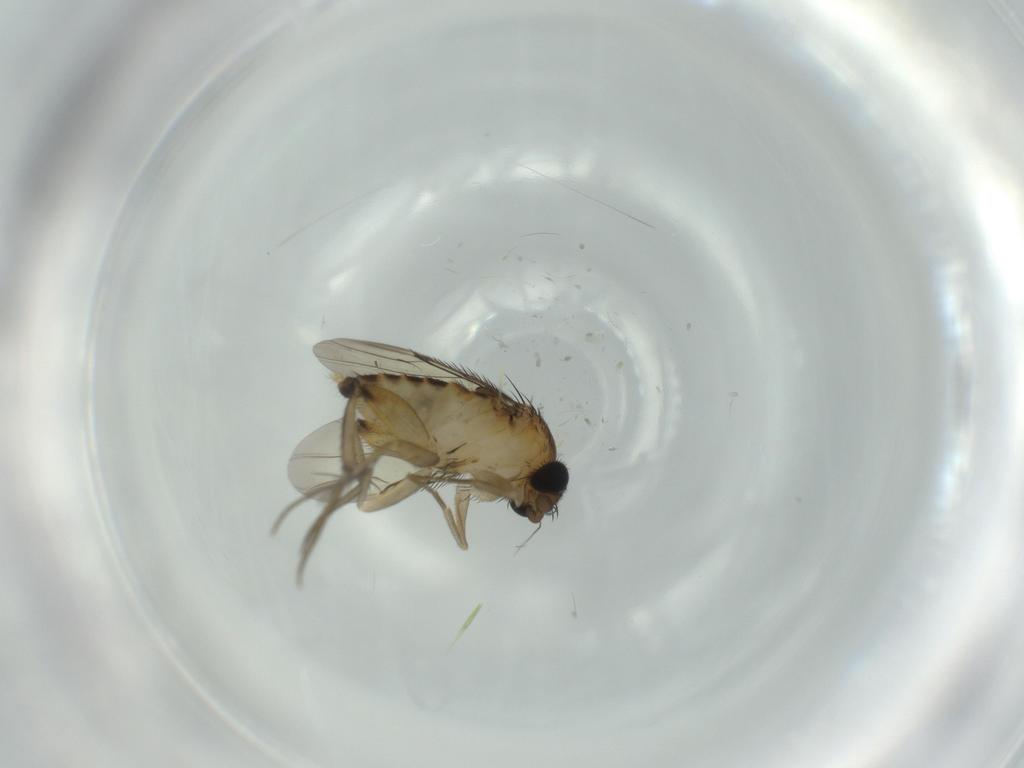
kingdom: Animalia
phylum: Arthropoda
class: Insecta
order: Diptera
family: Phoridae
